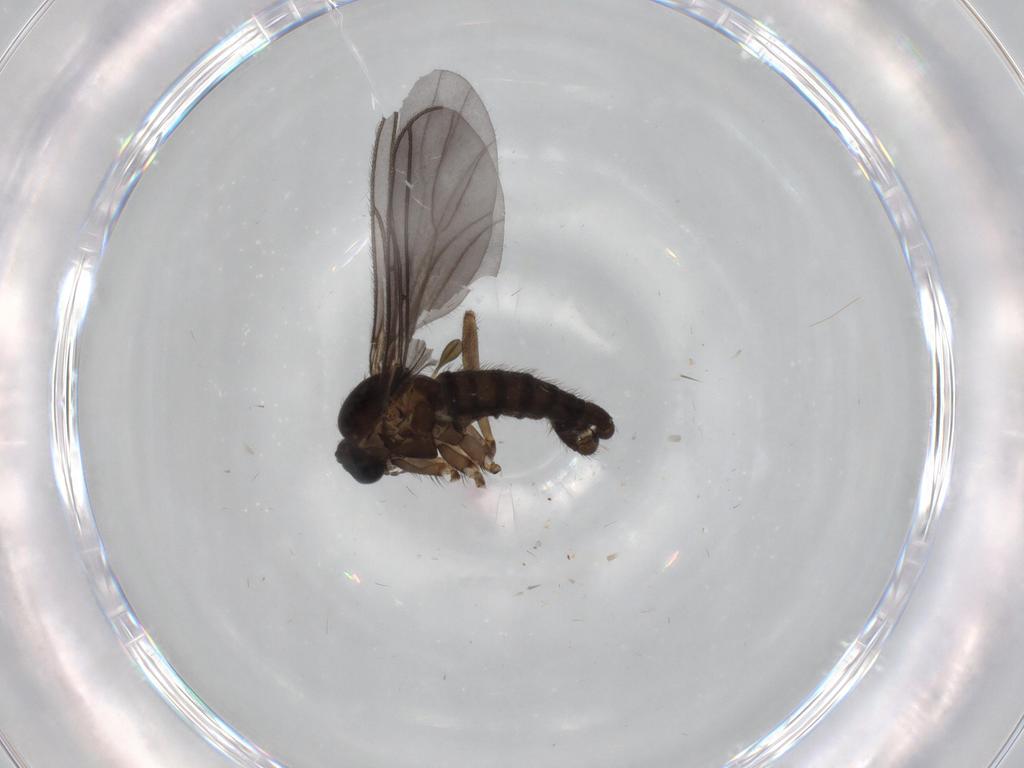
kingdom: Animalia
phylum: Arthropoda
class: Insecta
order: Diptera
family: Sciaridae
